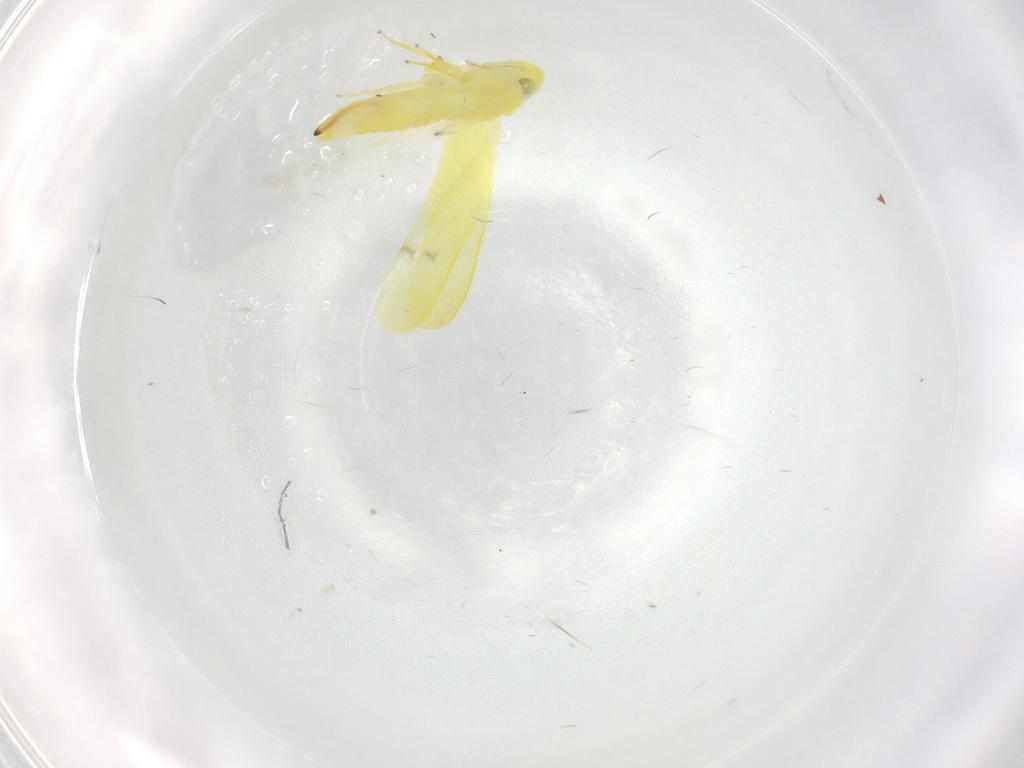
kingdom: Animalia
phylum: Arthropoda
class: Insecta
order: Hemiptera
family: Cicadellidae
